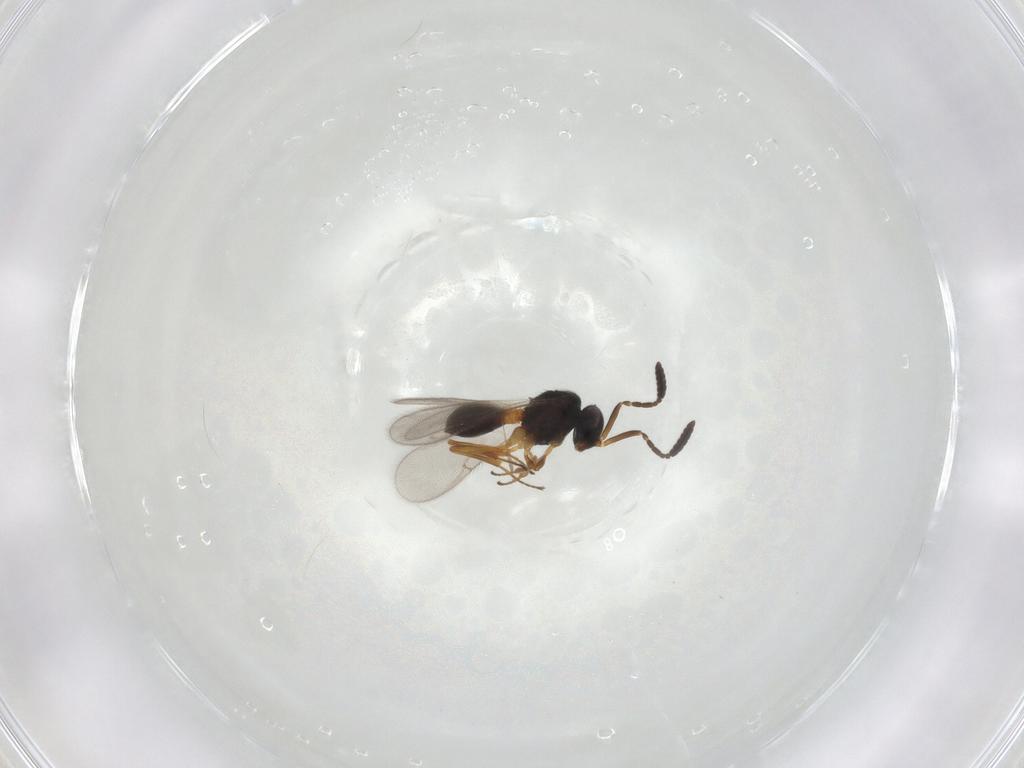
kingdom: Animalia
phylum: Arthropoda
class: Insecta
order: Hymenoptera
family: Scelionidae
